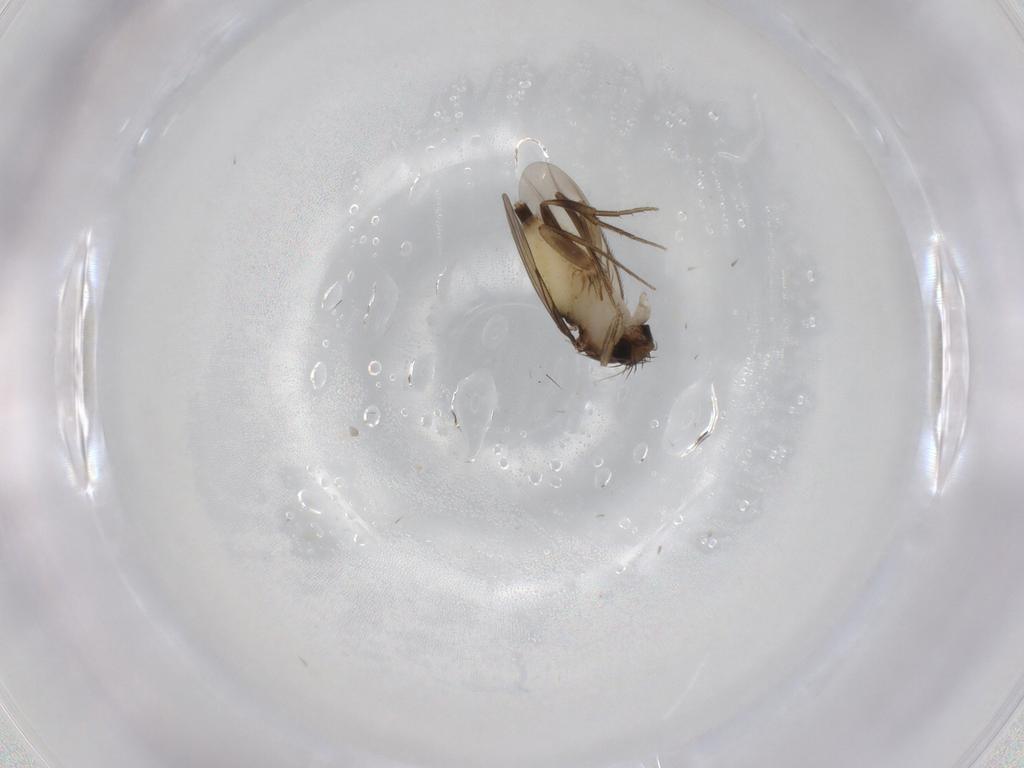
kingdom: Animalia
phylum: Arthropoda
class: Insecta
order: Diptera
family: Phoridae
